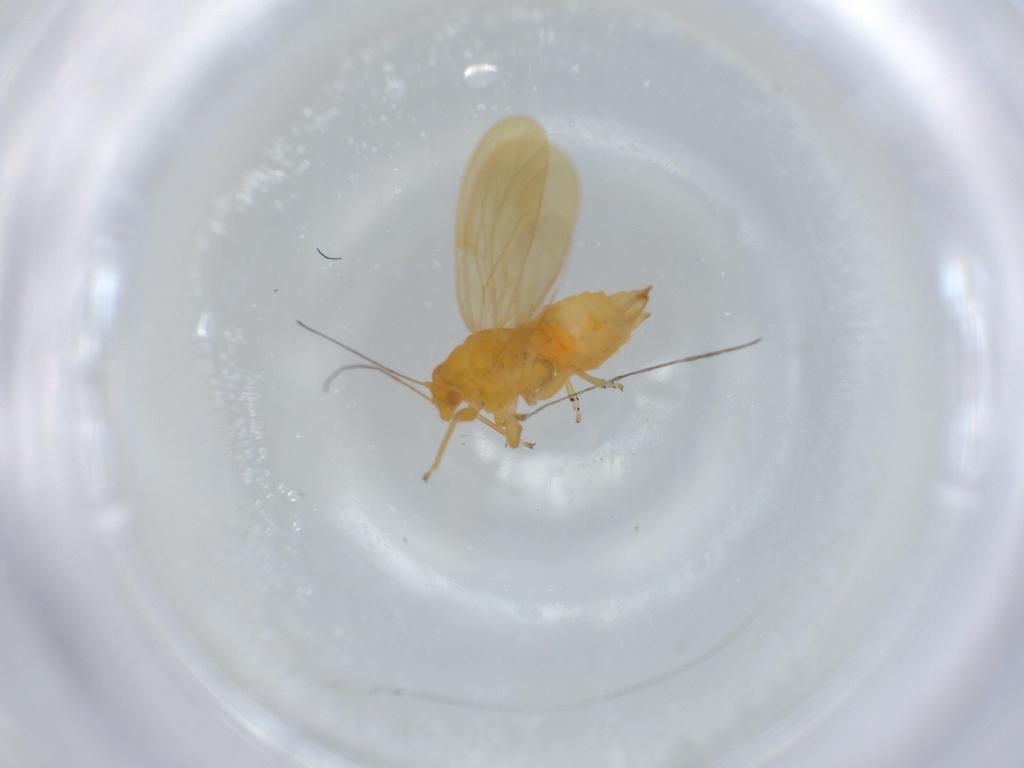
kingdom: Animalia
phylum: Arthropoda
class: Insecta
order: Hemiptera
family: Psyllidae
